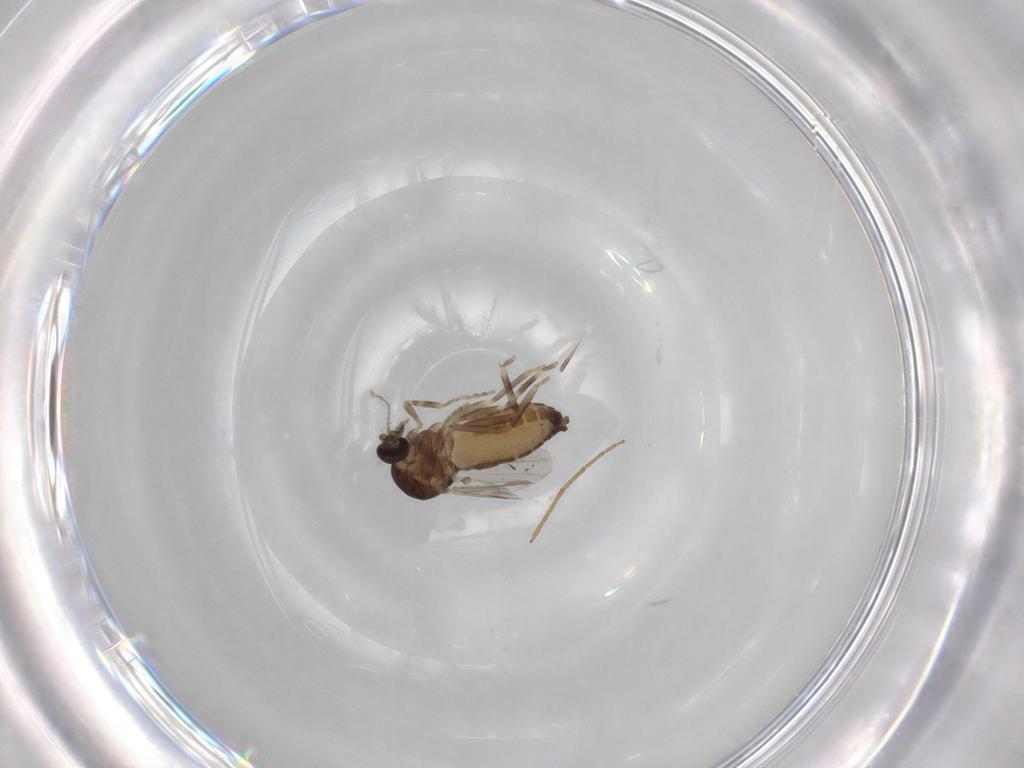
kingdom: Animalia
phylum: Arthropoda
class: Insecta
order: Diptera
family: Ceratopogonidae
